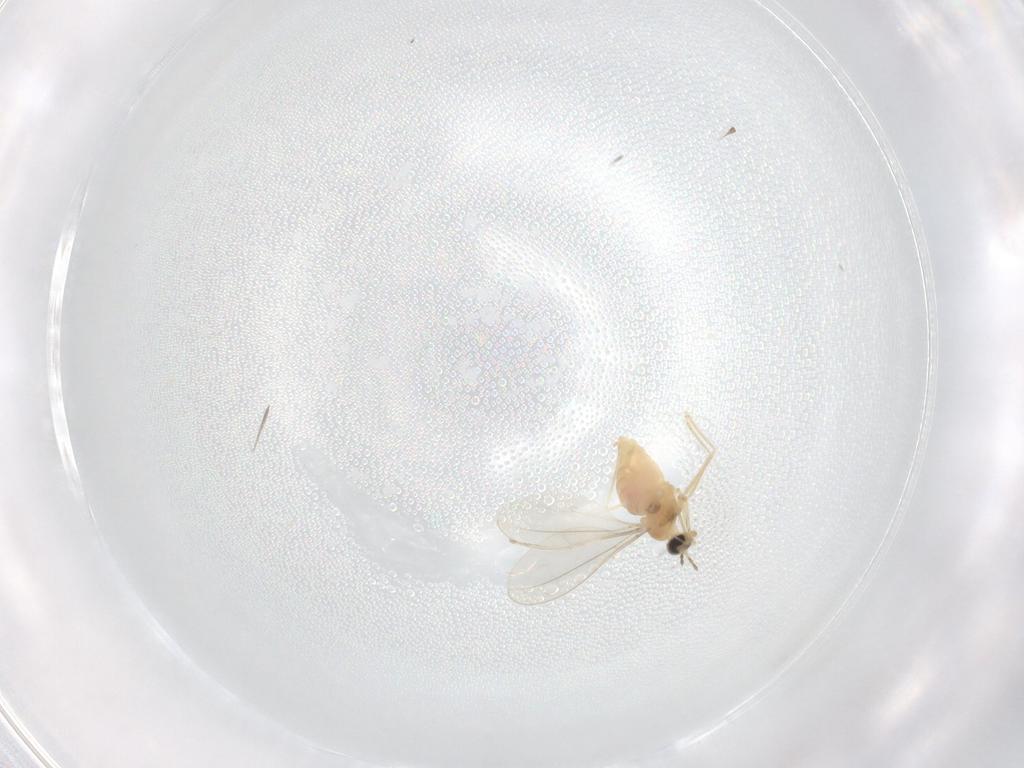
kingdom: Animalia
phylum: Arthropoda
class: Insecta
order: Diptera
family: Cecidomyiidae
